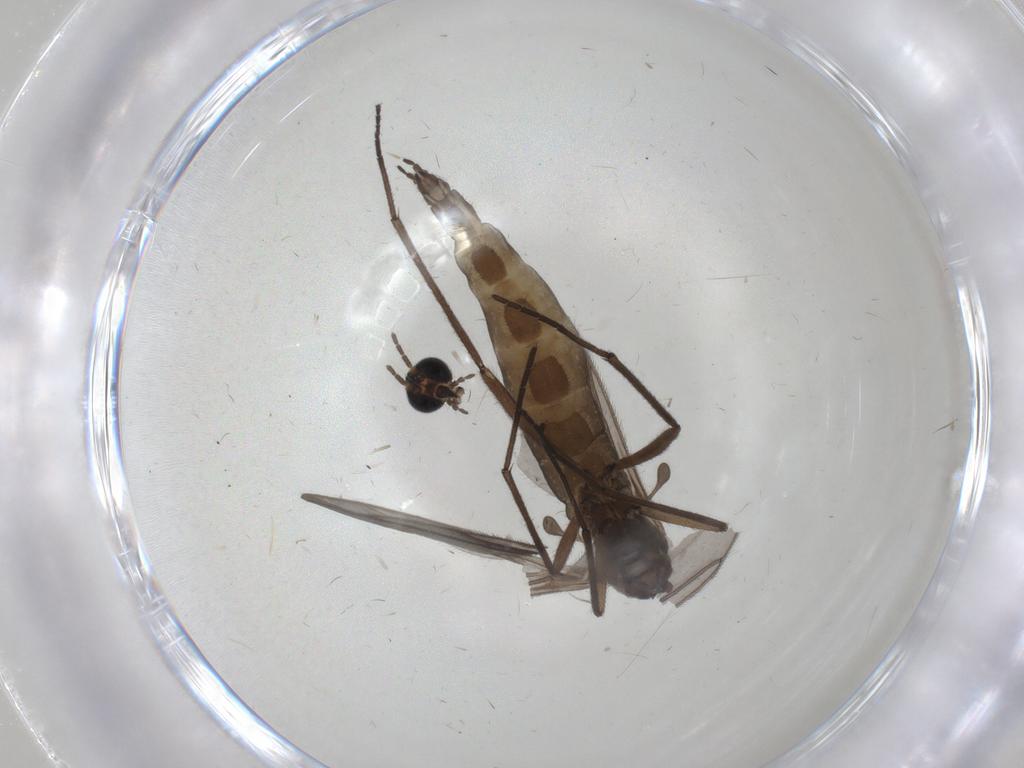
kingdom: Animalia
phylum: Arthropoda
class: Insecta
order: Diptera
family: Sciaridae
